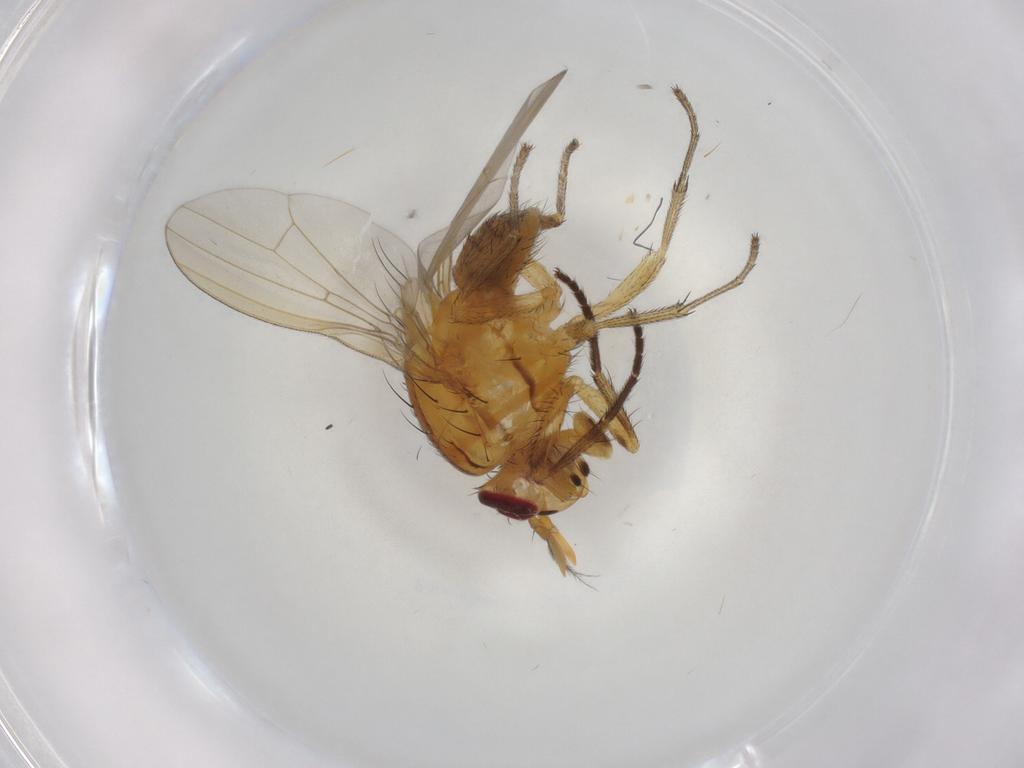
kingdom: Animalia
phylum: Arthropoda
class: Insecta
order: Diptera
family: Lauxaniidae
